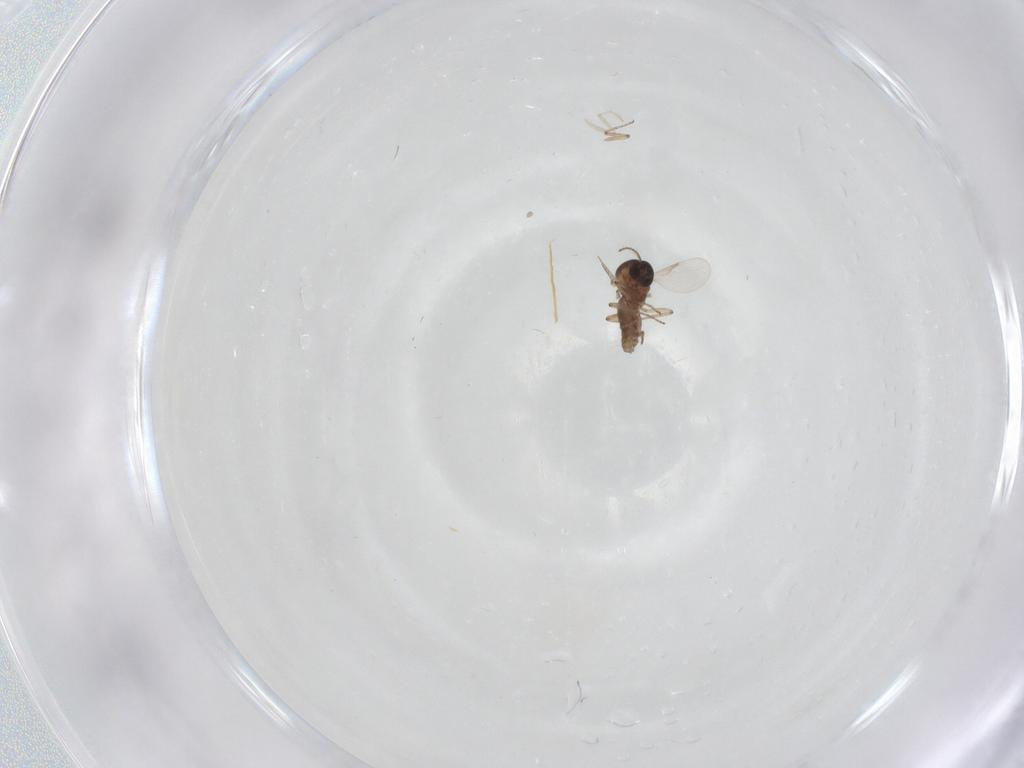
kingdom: Animalia
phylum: Arthropoda
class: Insecta
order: Diptera
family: Ceratopogonidae
